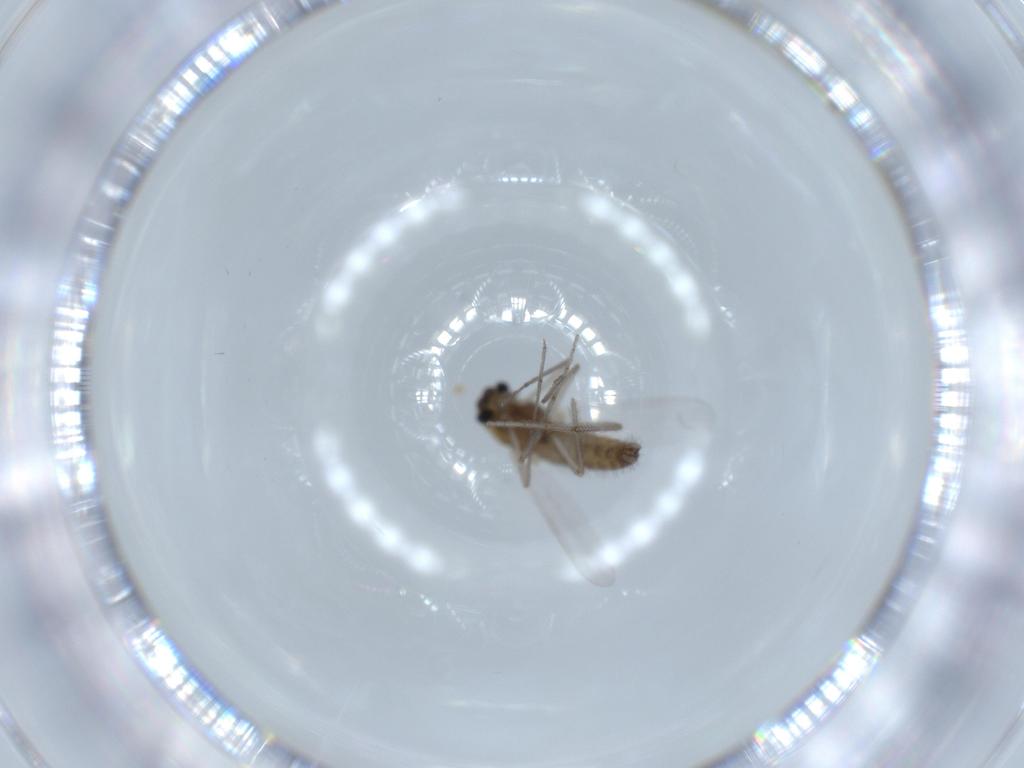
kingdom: Animalia
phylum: Arthropoda
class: Insecta
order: Diptera
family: Chironomidae
